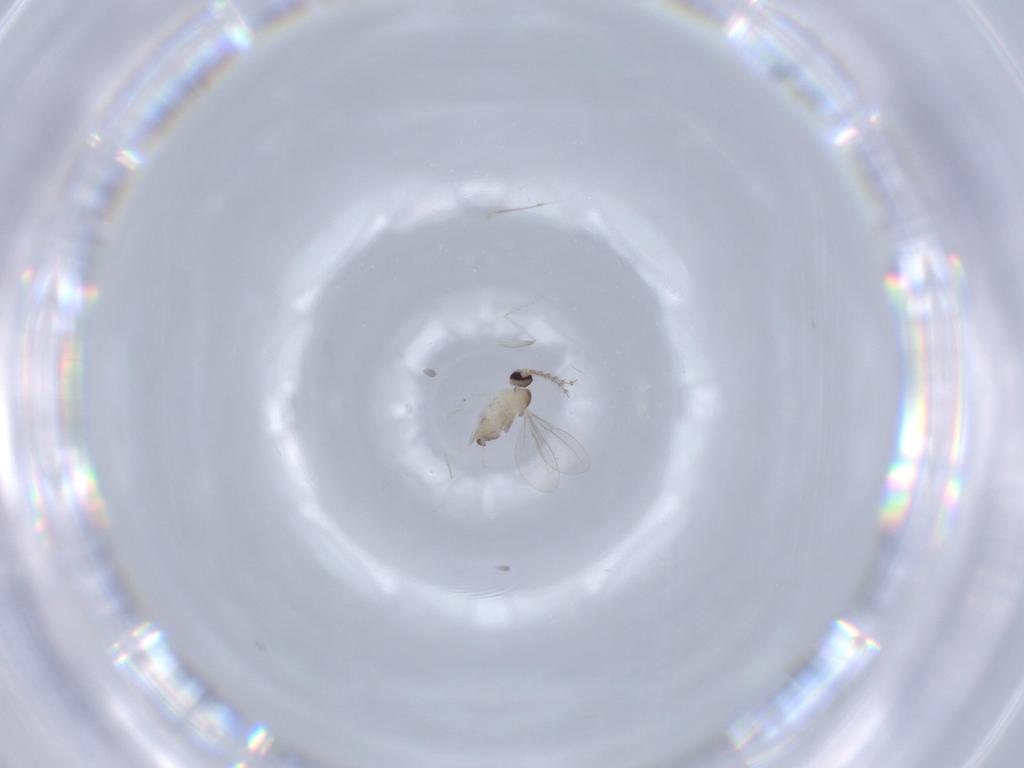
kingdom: Animalia
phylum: Arthropoda
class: Insecta
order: Diptera
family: Cecidomyiidae
